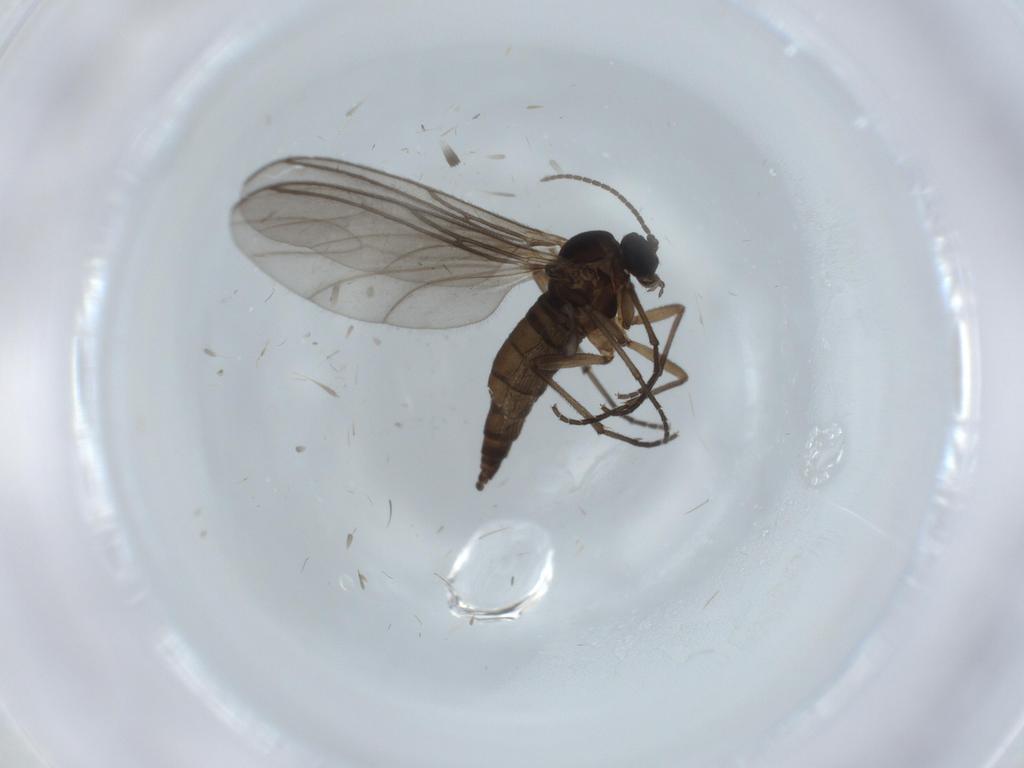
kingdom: Animalia
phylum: Arthropoda
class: Insecta
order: Diptera
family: Sciaridae
